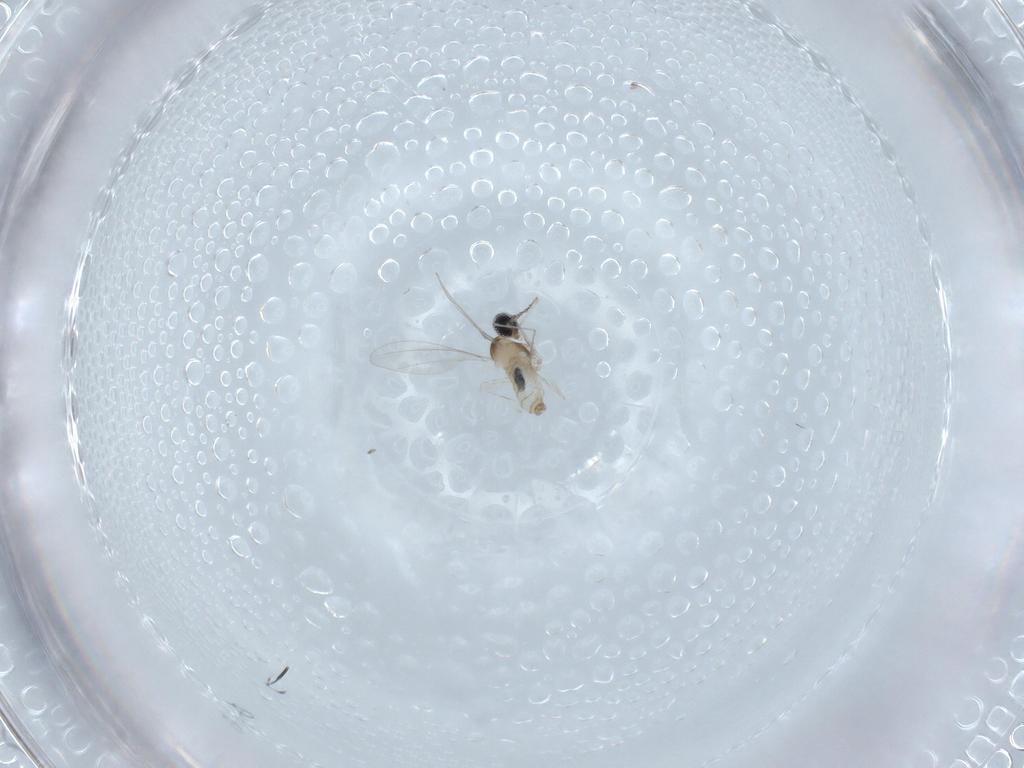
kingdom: Animalia
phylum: Arthropoda
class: Insecta
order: Diptera
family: Cecidomyiidae
